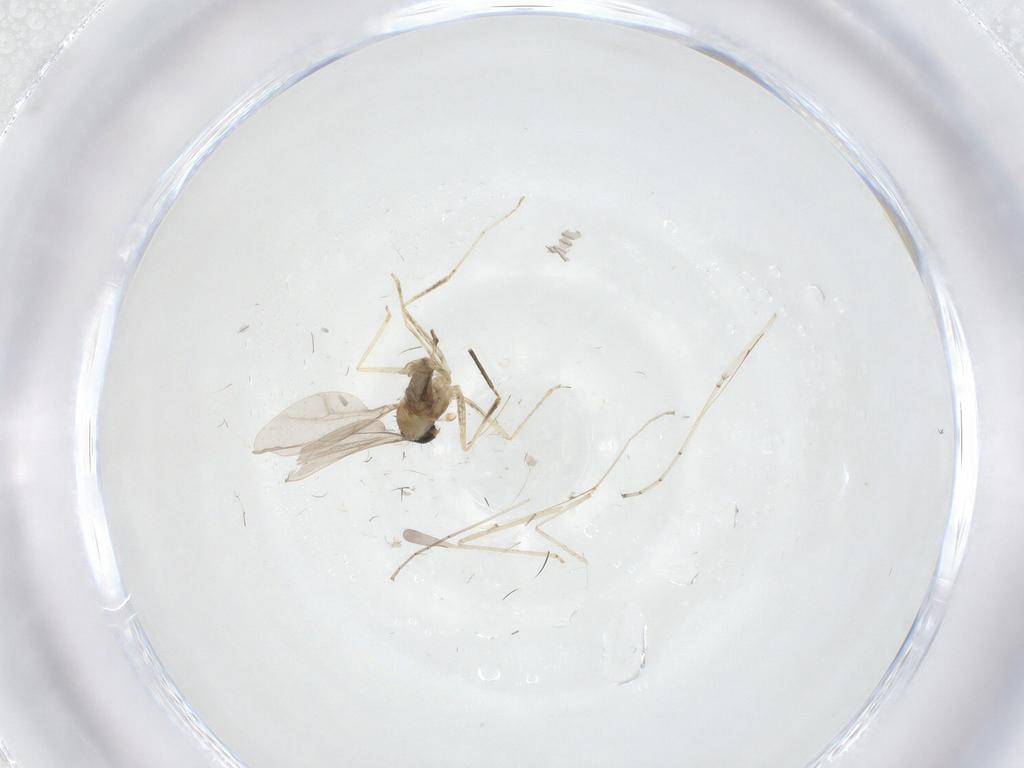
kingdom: Animalia
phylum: Arthropoda
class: Insecta
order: Diptera
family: Cecidomyiidae
